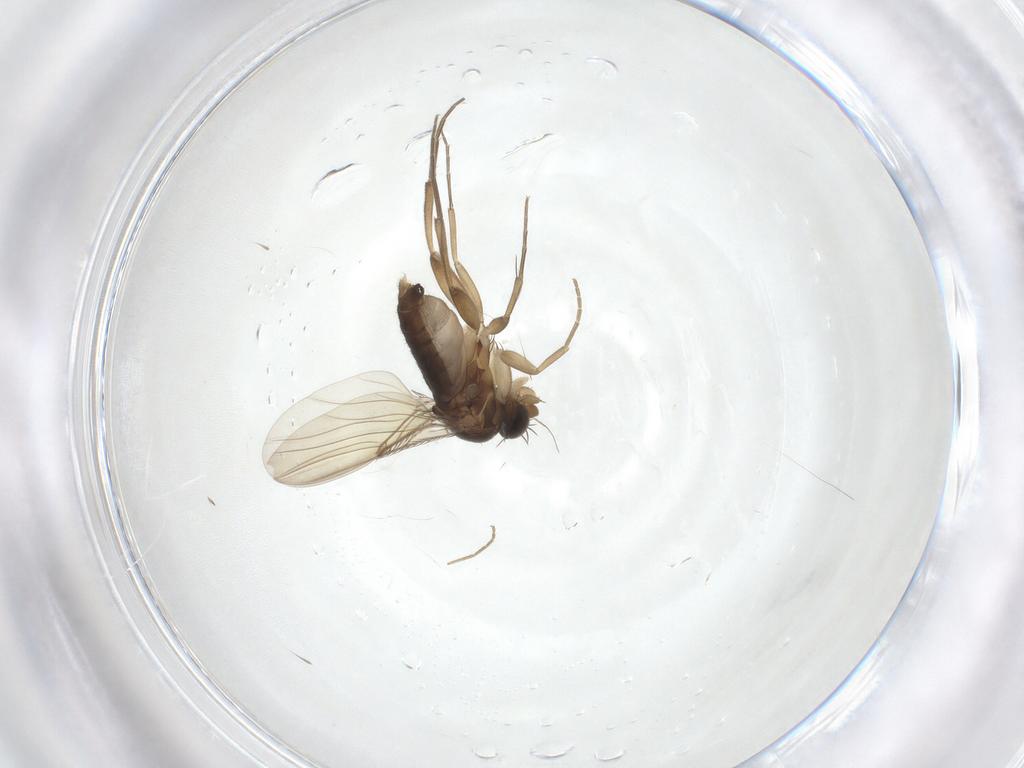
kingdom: Animalia
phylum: Arthropoda
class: Insecta
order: Diptera
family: Phoridae
